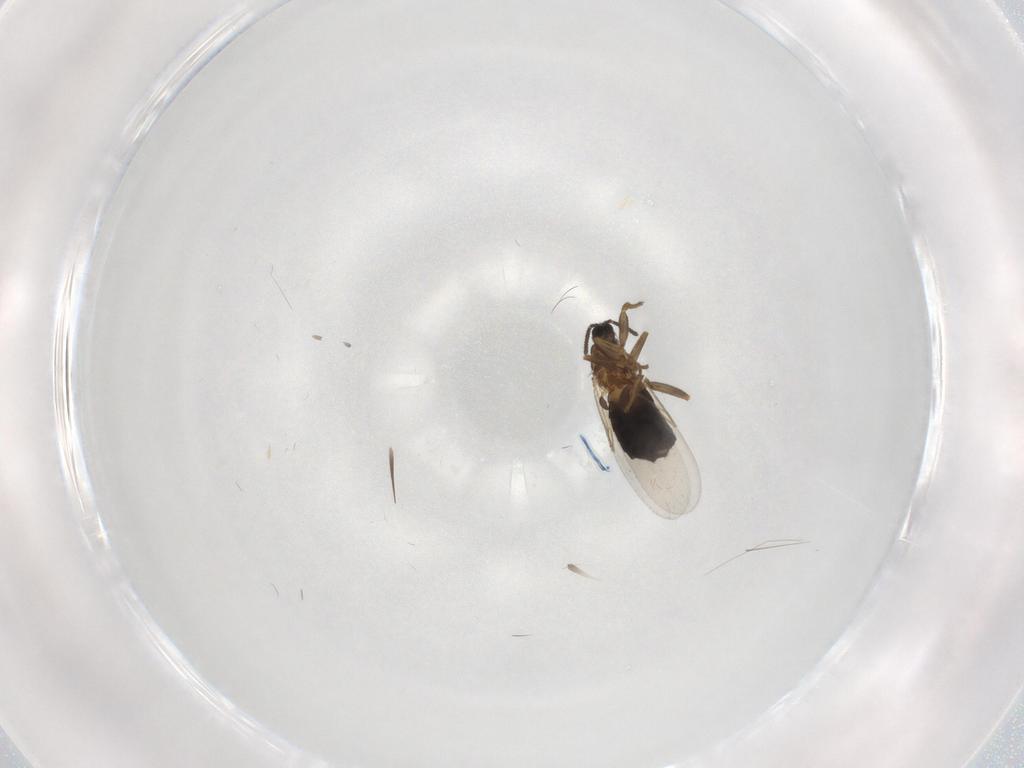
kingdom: Animalia
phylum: Arthropoda
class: Insecta
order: Diptera
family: Scatopsidae
